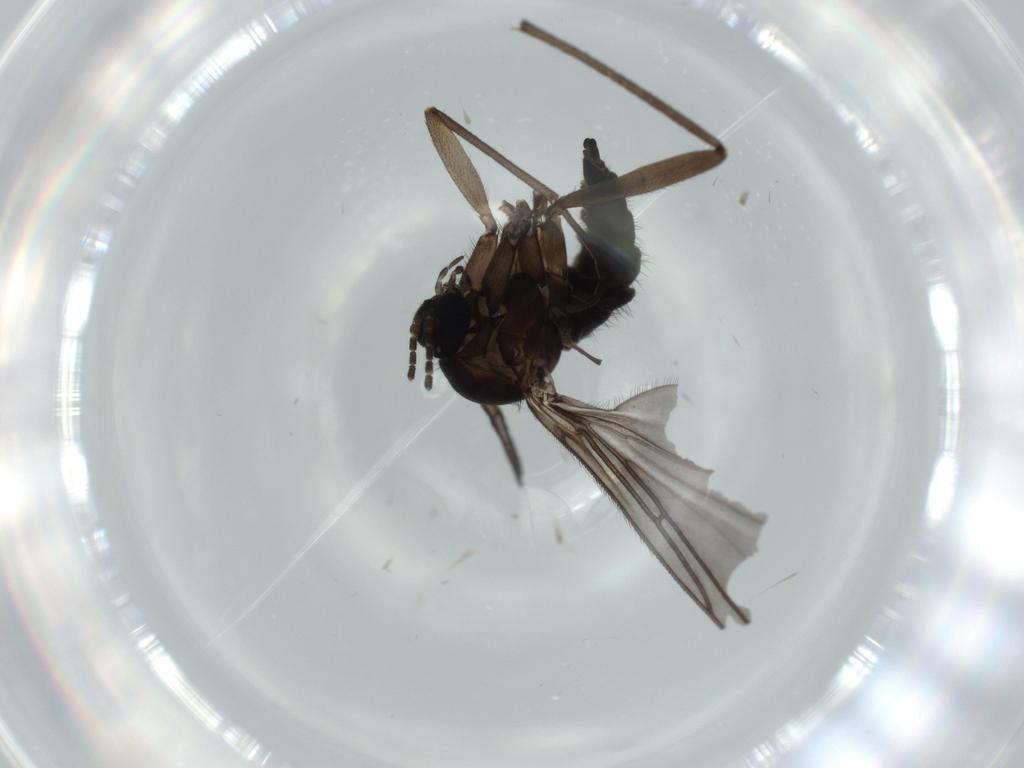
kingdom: Animalia
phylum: Arthropoda
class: Insecta
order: Diptera
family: Sciaridae
